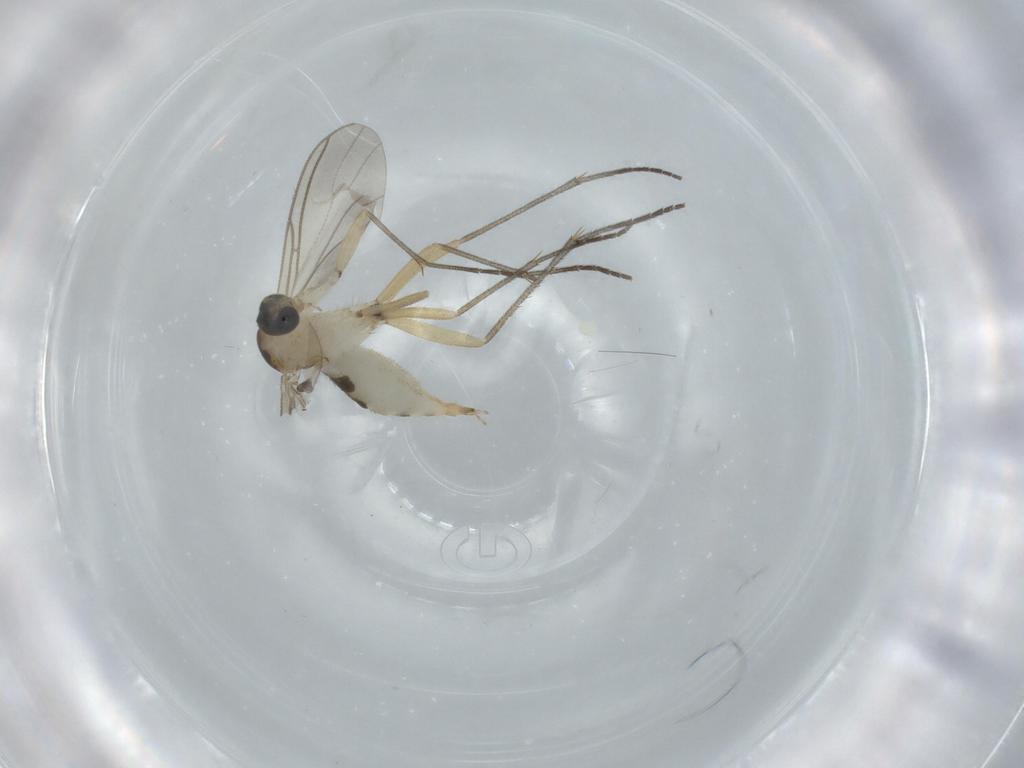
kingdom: Animalia
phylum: Arthropoda
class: Insecta
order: Diptera
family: Sciaridae
